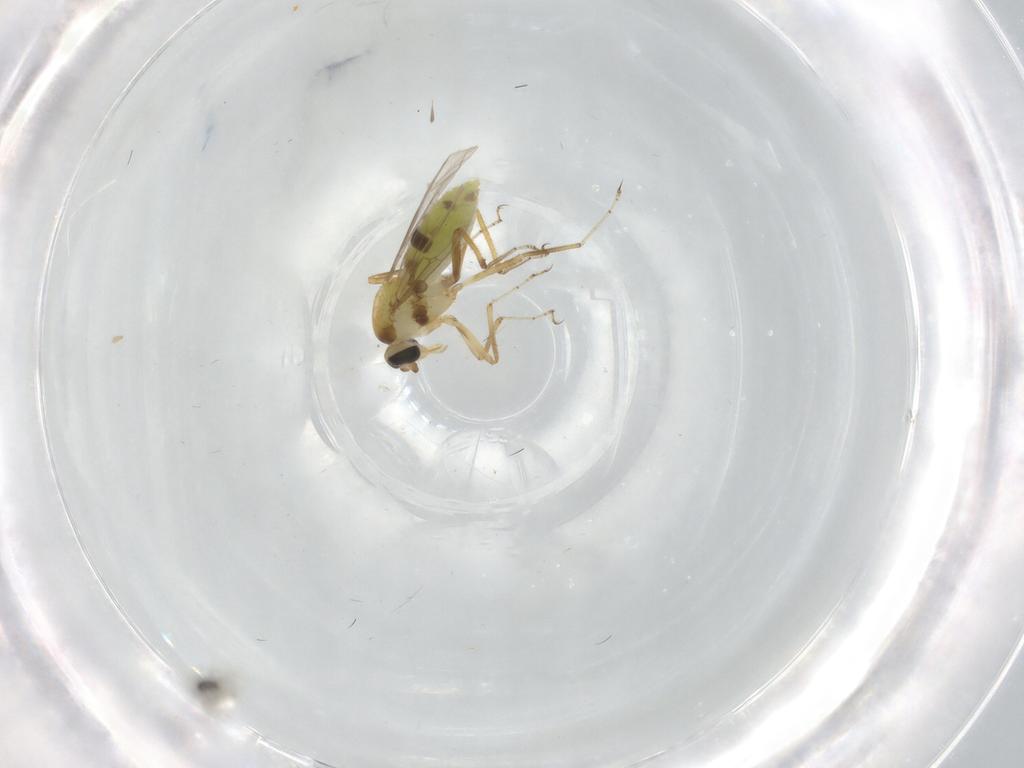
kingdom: Animalia
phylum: Arthropoda
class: Insecta
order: Diptera
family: Ceratopogonidae
